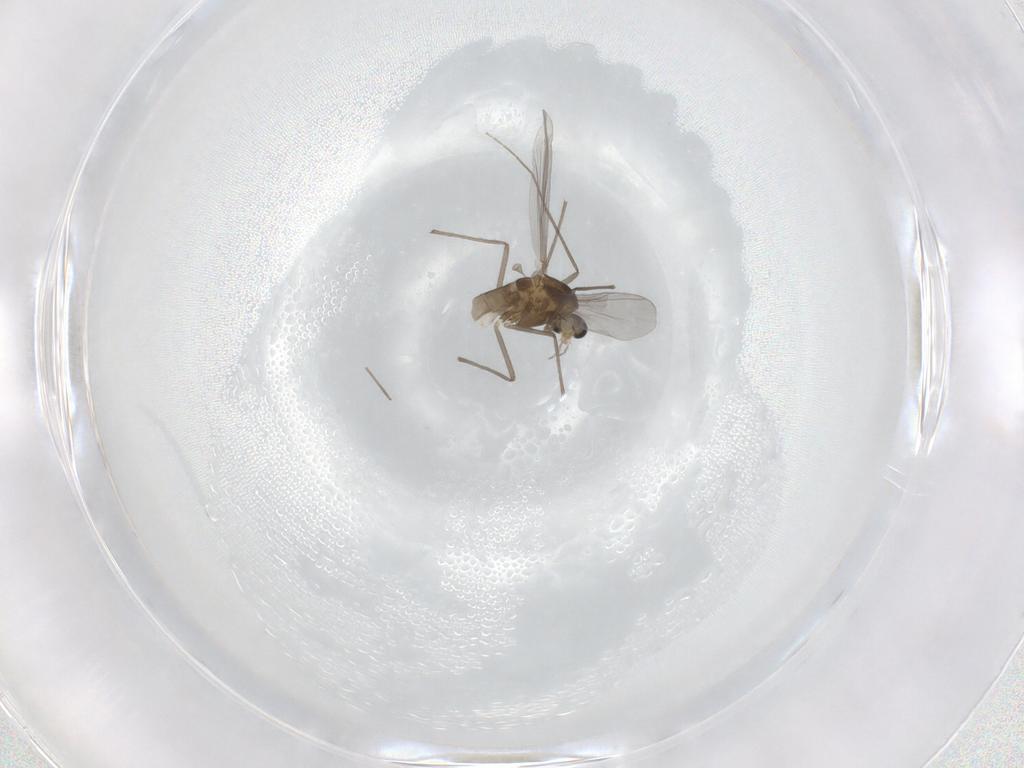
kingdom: Animalia
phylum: Arthropoda
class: Insecta
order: Diptera
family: Chironomidae
